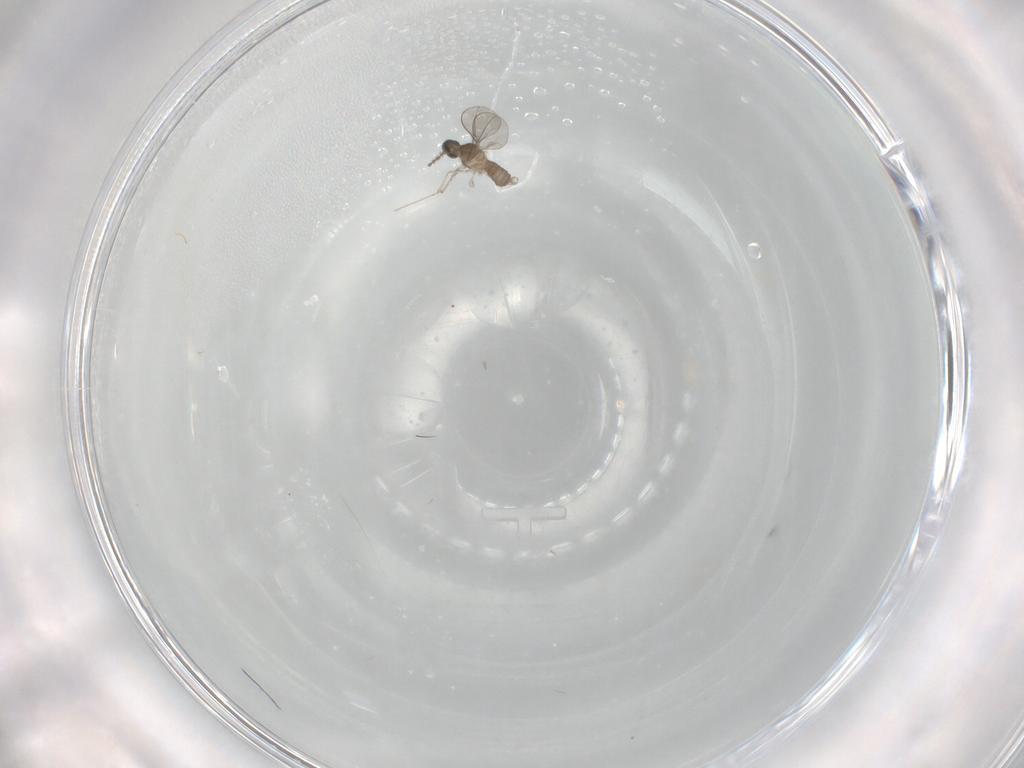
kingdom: Animalia
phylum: Arthropoda
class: Insecta
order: Diptera
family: Cecidomyiidae
